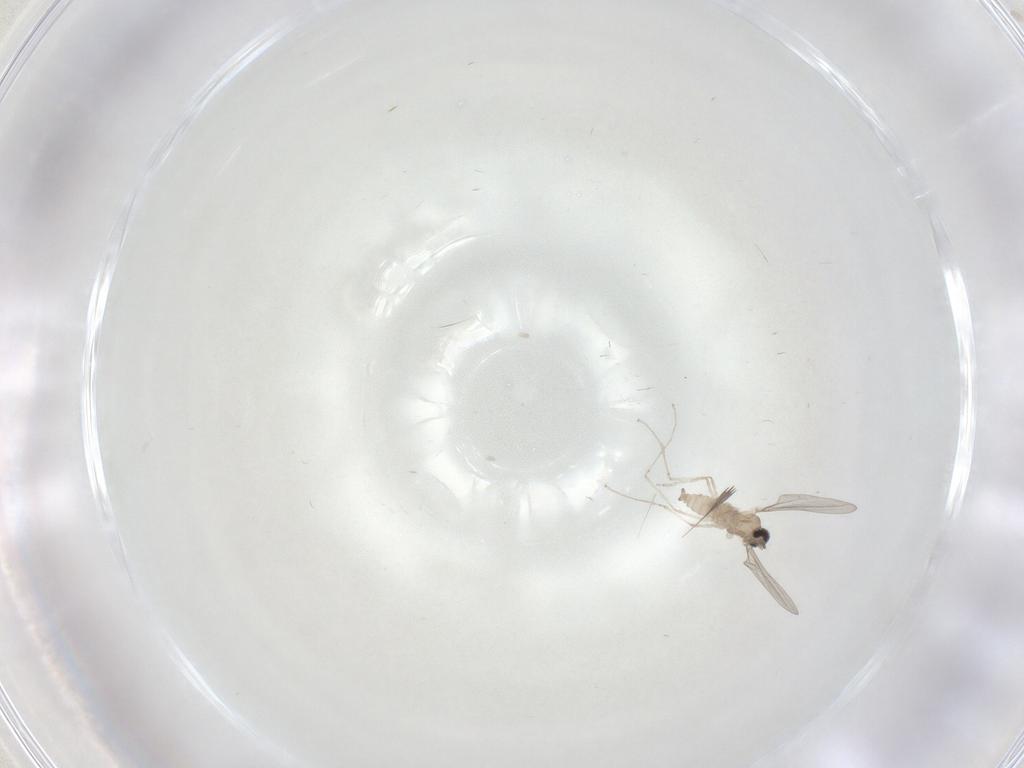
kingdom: Animalia
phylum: Arthropoda
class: Insecta
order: Diptera
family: Cecidomyiidae
